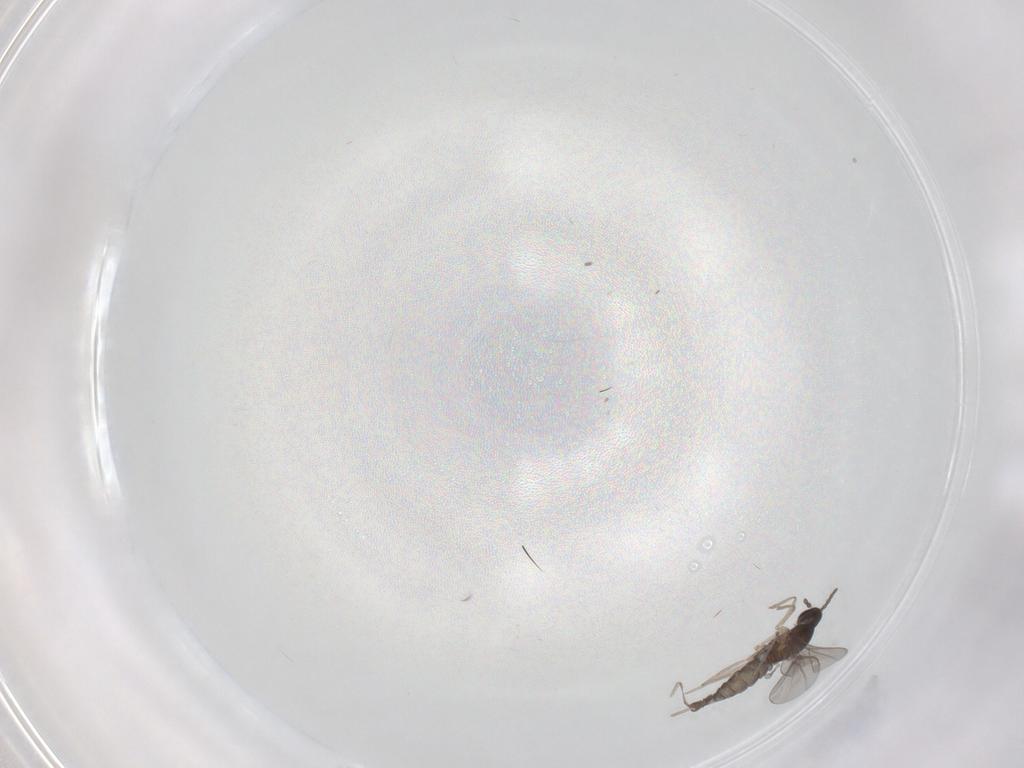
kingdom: Animalia
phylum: Arthropoda
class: Insecta
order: Diptera
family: Cecidomyiidae
